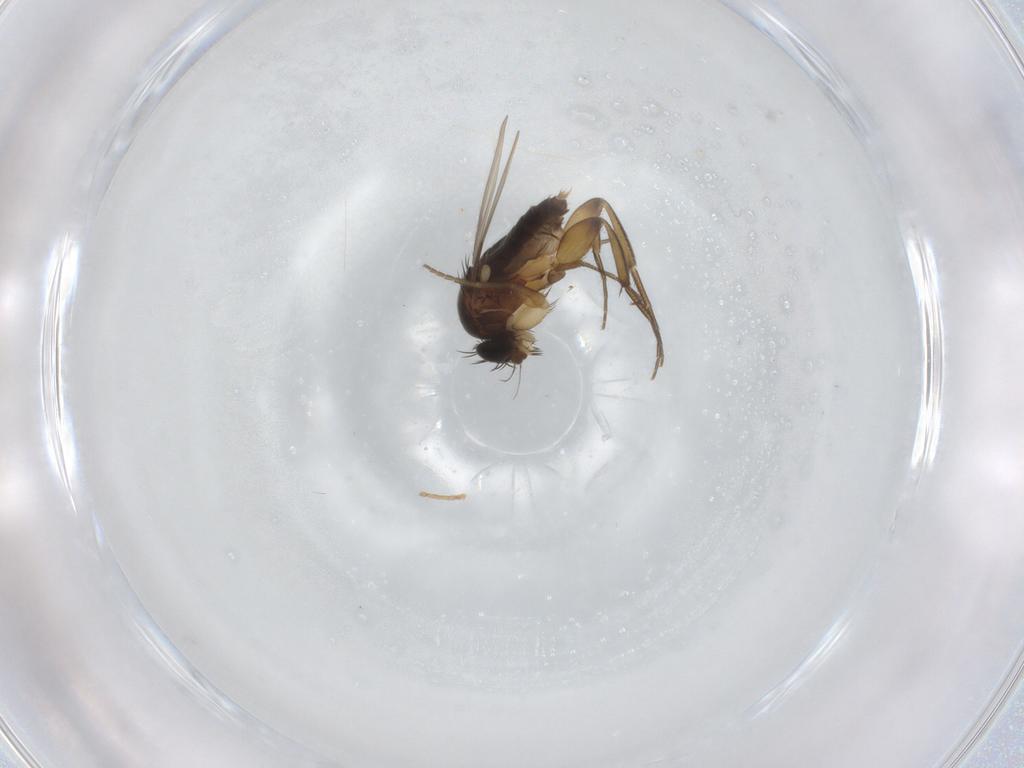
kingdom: Animalia
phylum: Arthropoda
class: Insecta
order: Diptera
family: Phoridae
